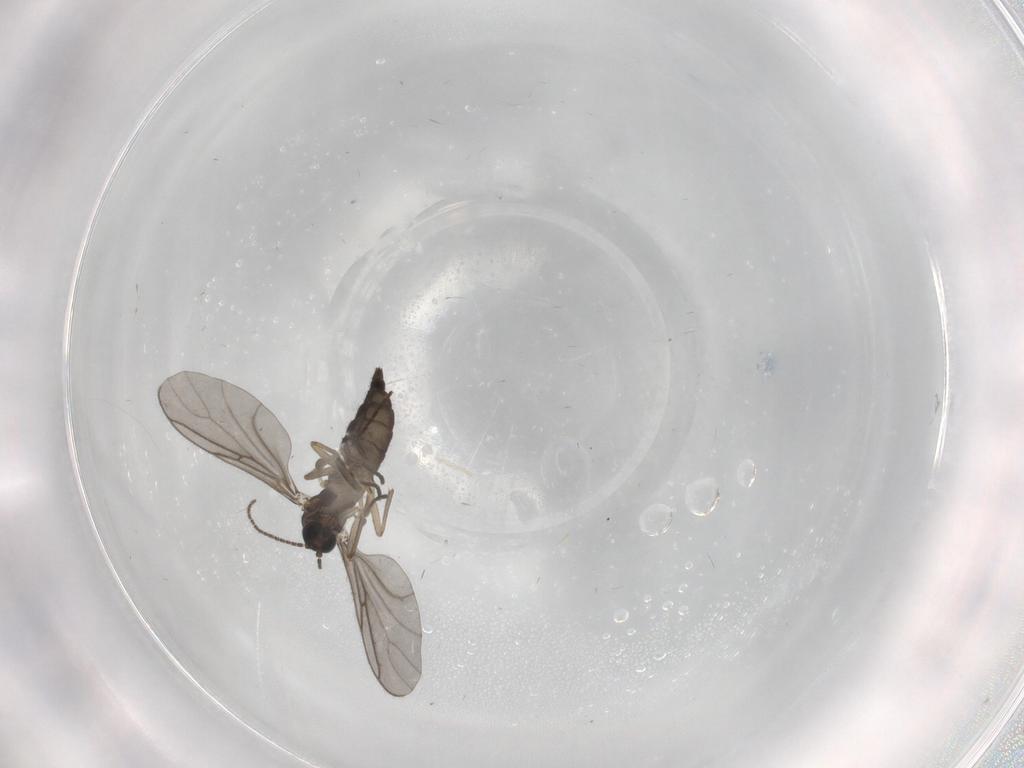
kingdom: Animalia
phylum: Arthropoda
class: Insecta
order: Diptera
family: Sciaridae
